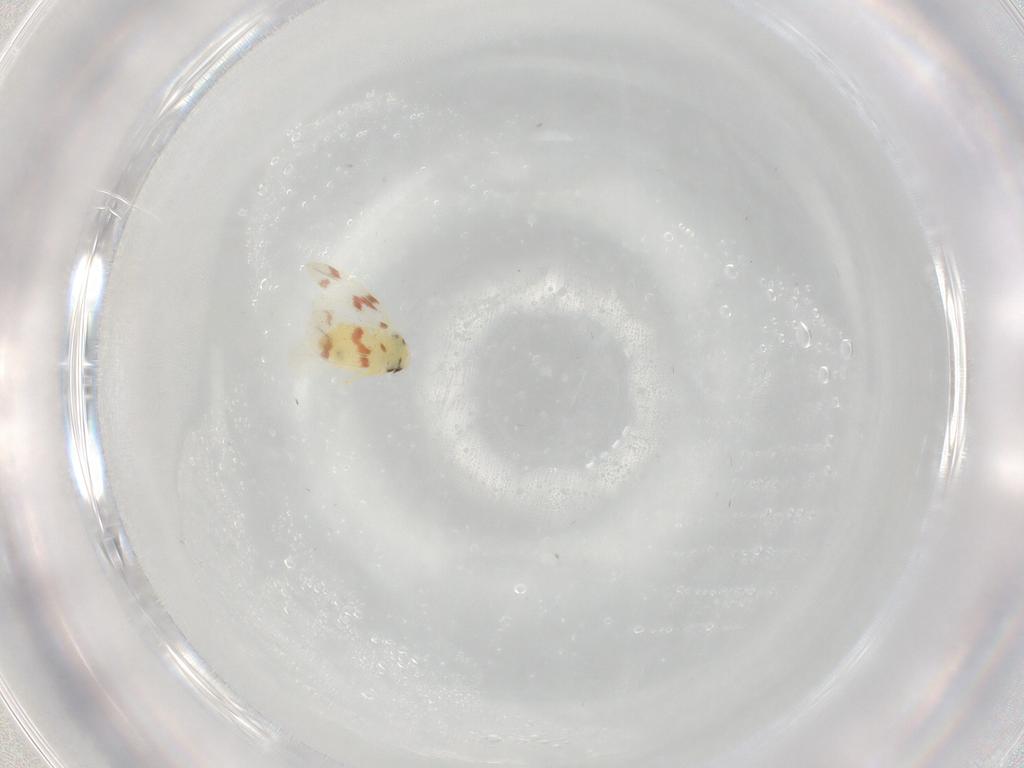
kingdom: Animalia
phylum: Arthropoda
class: Insecta
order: Hemiptera
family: Aleyrodidae
